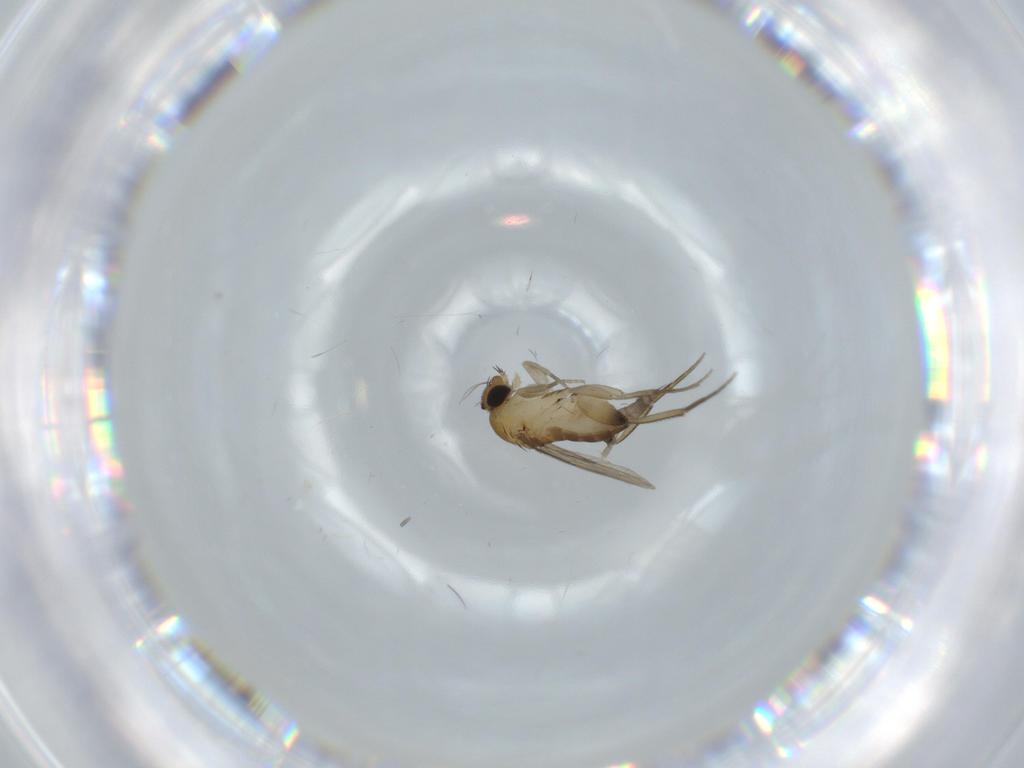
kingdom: Animalia
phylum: Arthropoda
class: Insecta
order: Diptera
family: Phoridae
